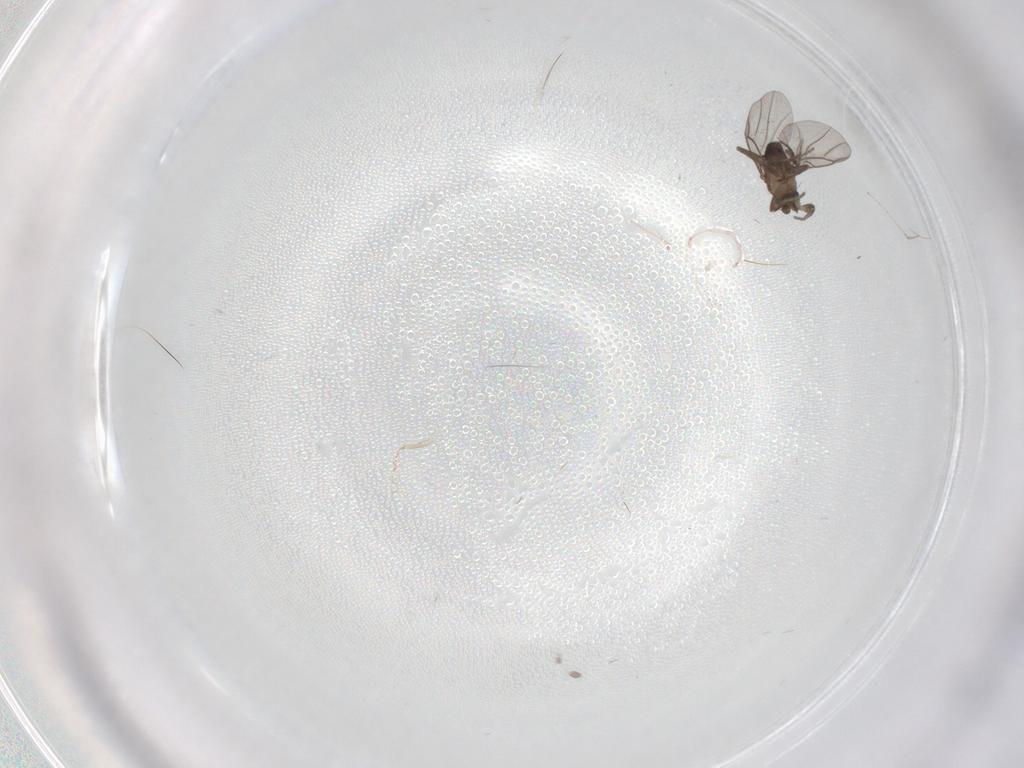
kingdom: Animalia
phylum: Arthropoda
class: Insecta
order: Diptera
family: Cecidomyiidae
